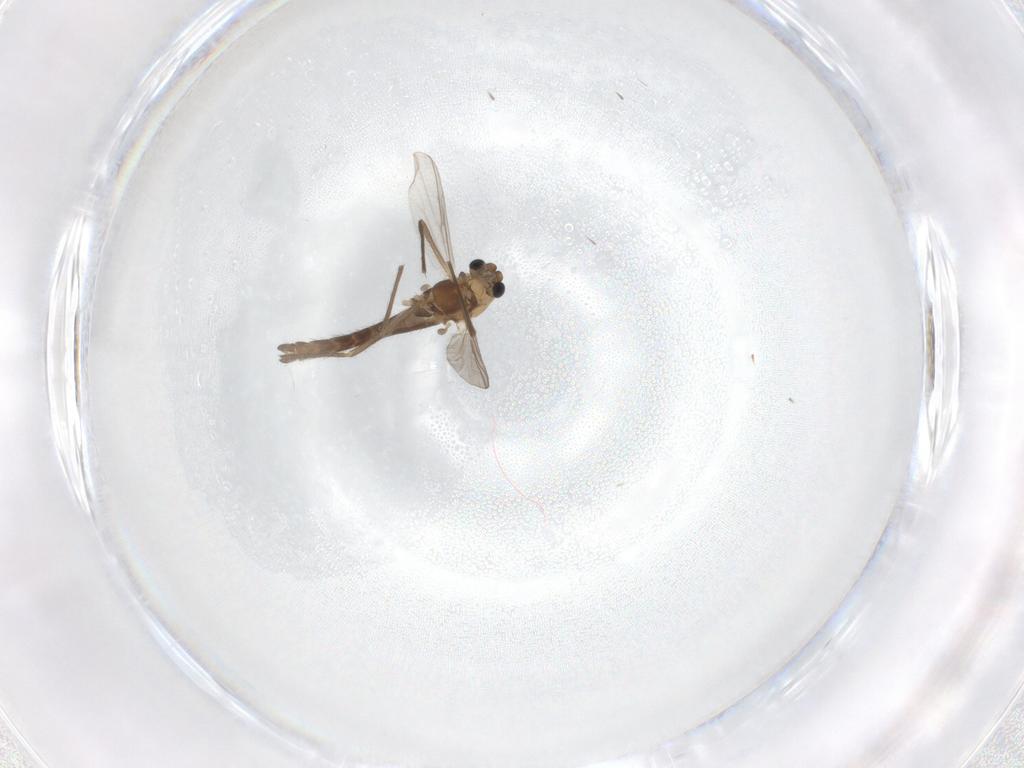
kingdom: Animalia
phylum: Arthropoda
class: Insecta
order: Diptera
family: Chironomidae
